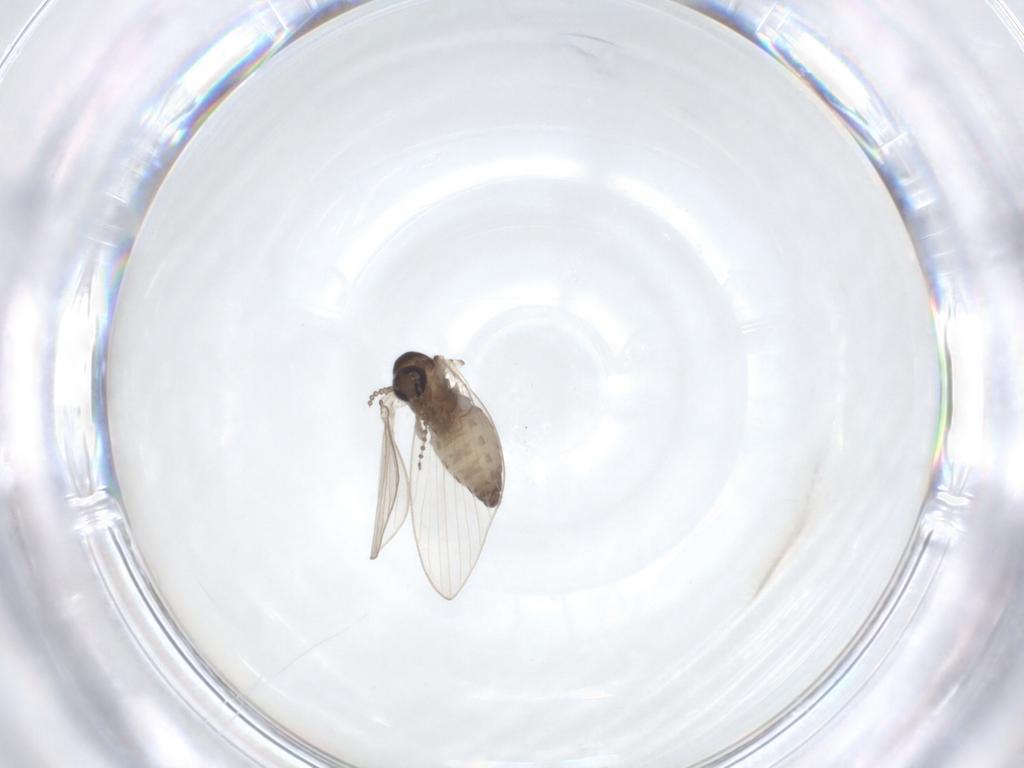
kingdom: Animalia
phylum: Arthropoda
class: Insecta
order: Diptera
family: Psychodidae
